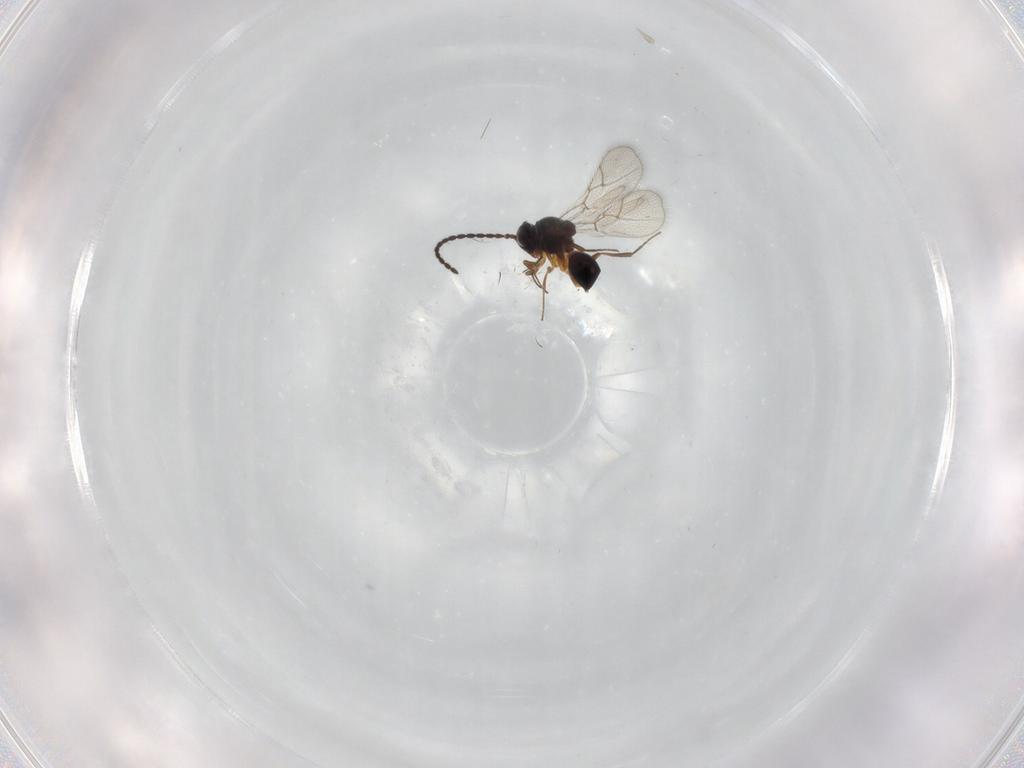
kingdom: Animalia
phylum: Arthropoda
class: Insecta
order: Hymenoptera
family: Figitidae
